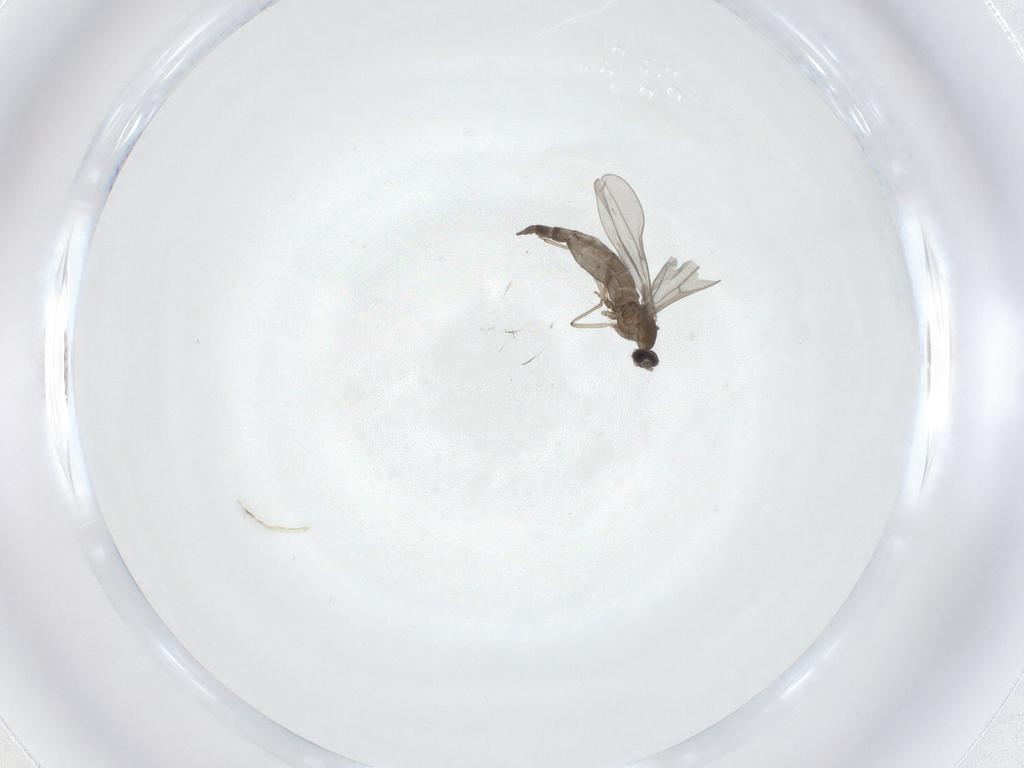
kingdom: Animalia
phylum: Arthropoda
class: Insecta
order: Diptera
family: Cecidomyiidae
